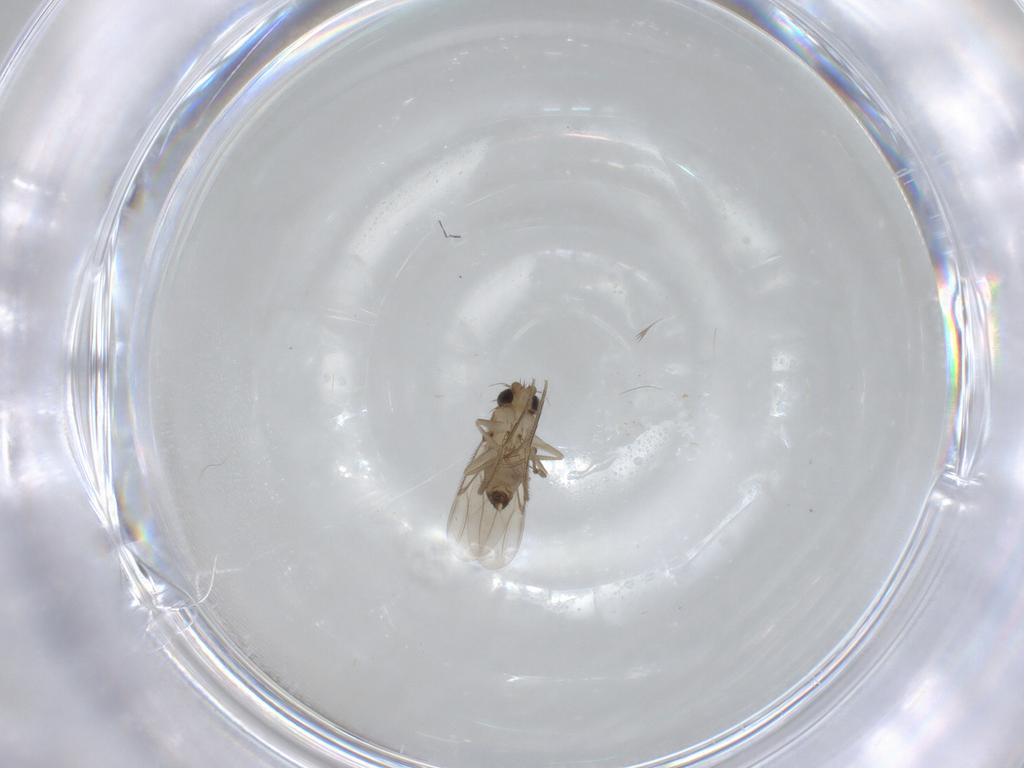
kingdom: Animalia
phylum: Arthropoda
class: Insecta
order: Diptera
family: Phoridae
